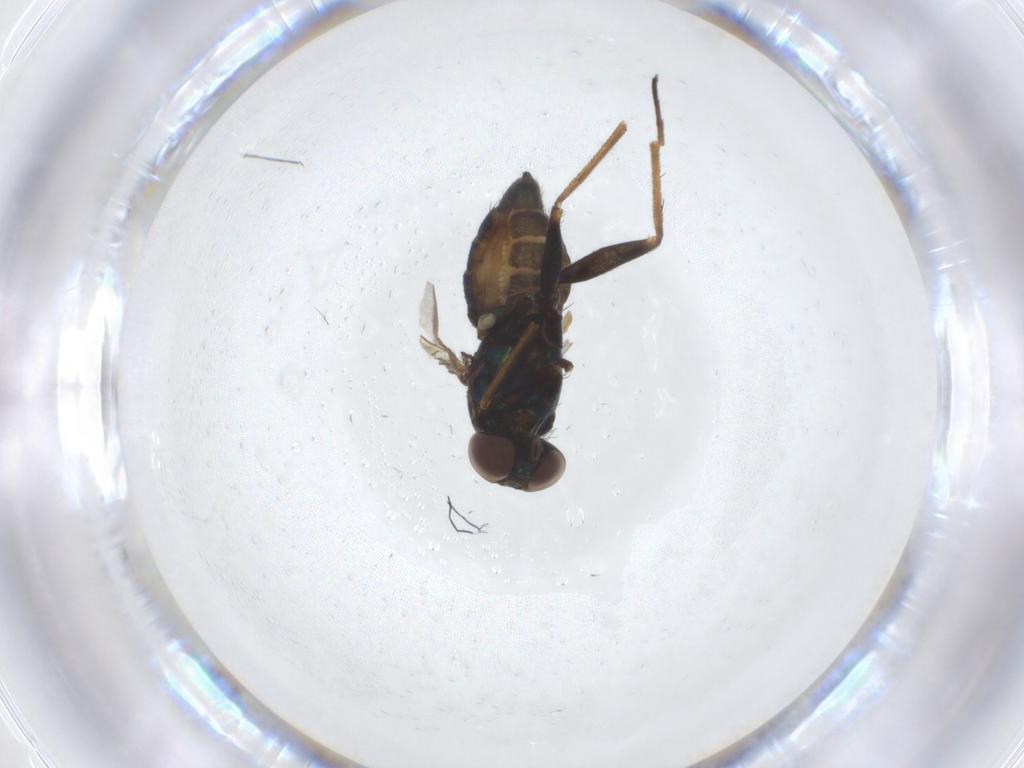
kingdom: Animalia
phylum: Arthropoda
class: Insecta
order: Diptera
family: Dolichopodidae
